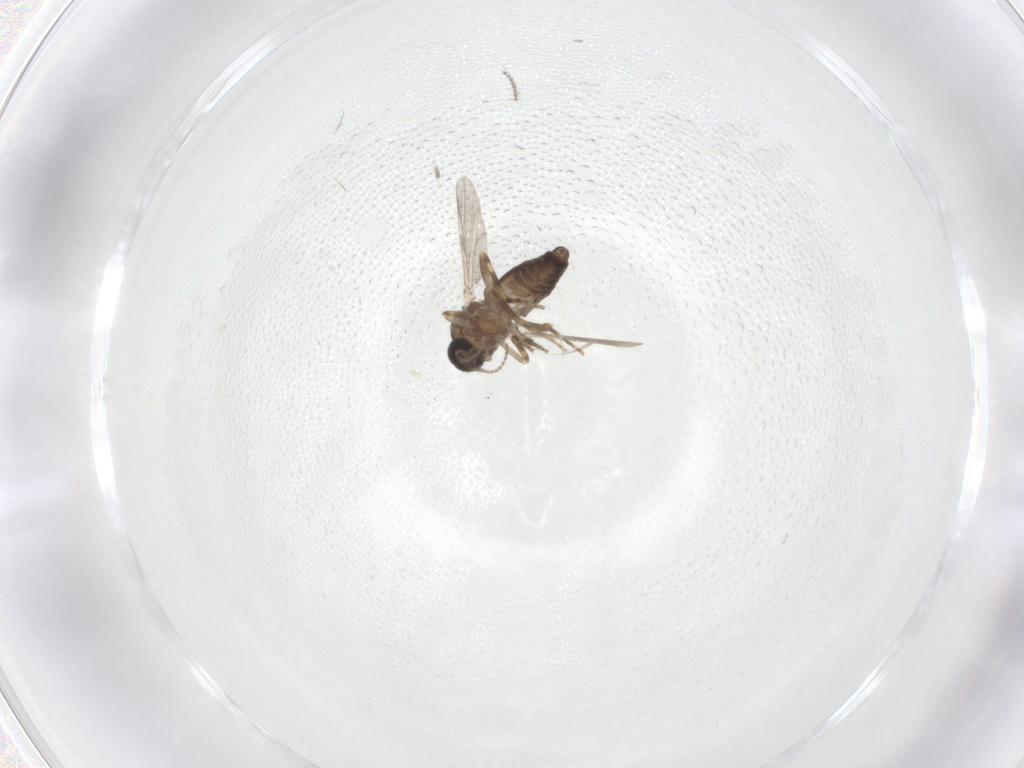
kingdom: Animalia
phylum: Arthropoda
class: Insecta
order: Diptera
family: Ceratopogonidae
